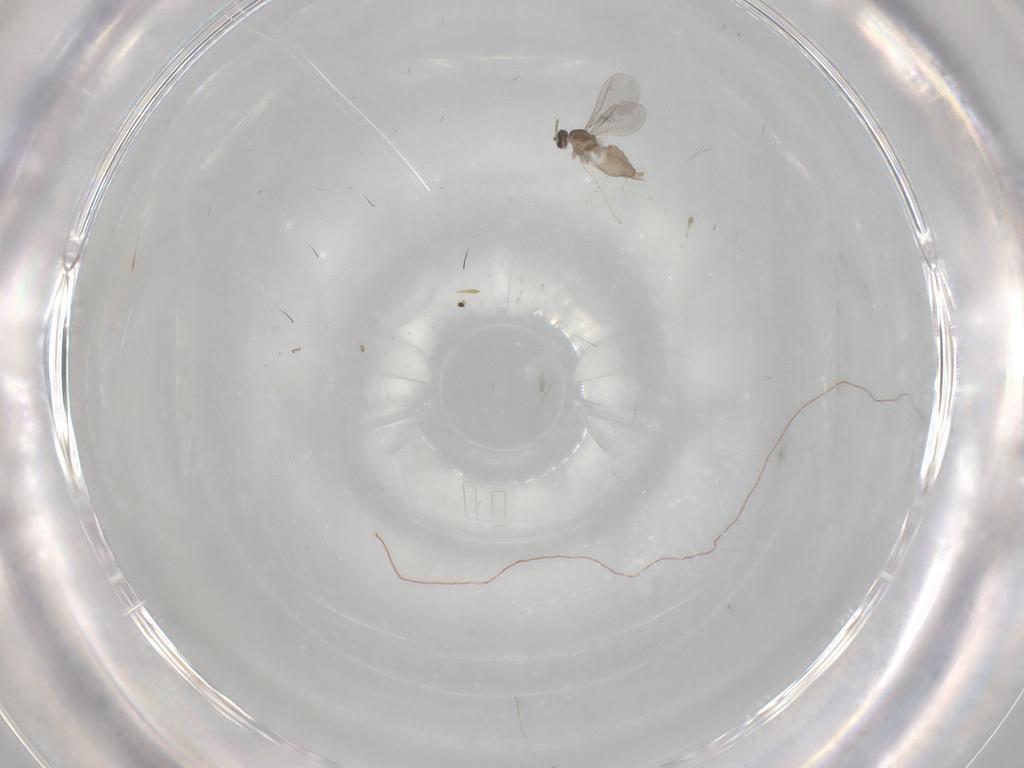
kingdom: Animalia
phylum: Arthropoda
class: Insecta
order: Diptera
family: Cecidomyiidae
